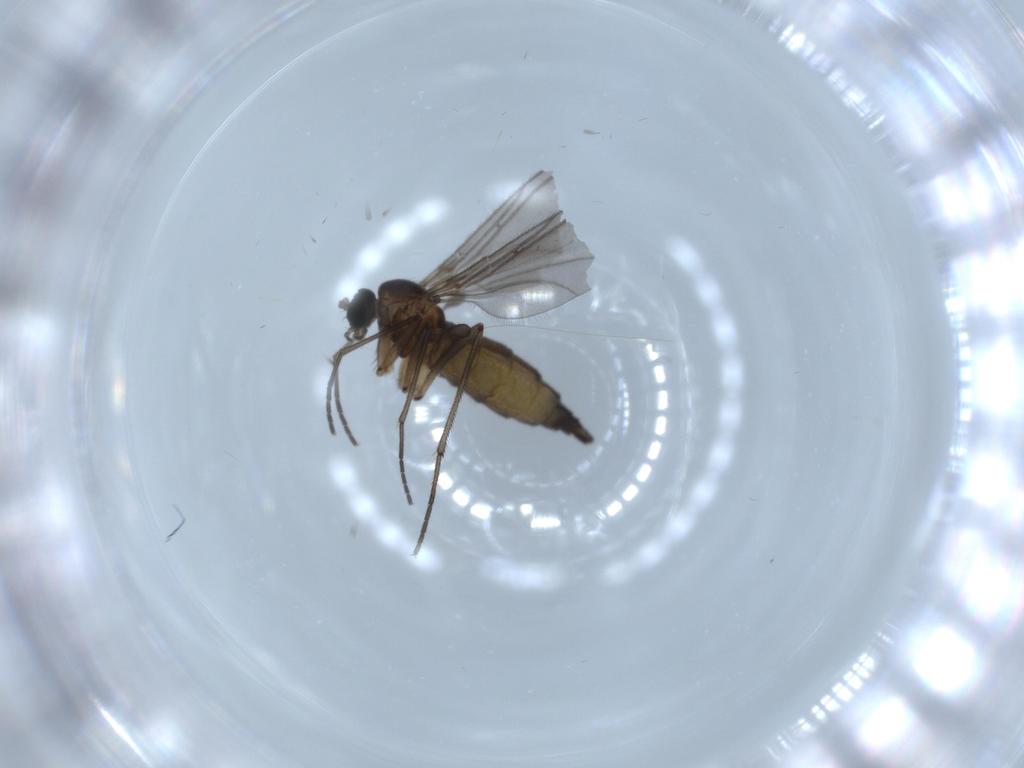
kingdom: Animalia
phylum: Arthropoda
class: Insecta
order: Diptera
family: Sciaridae
